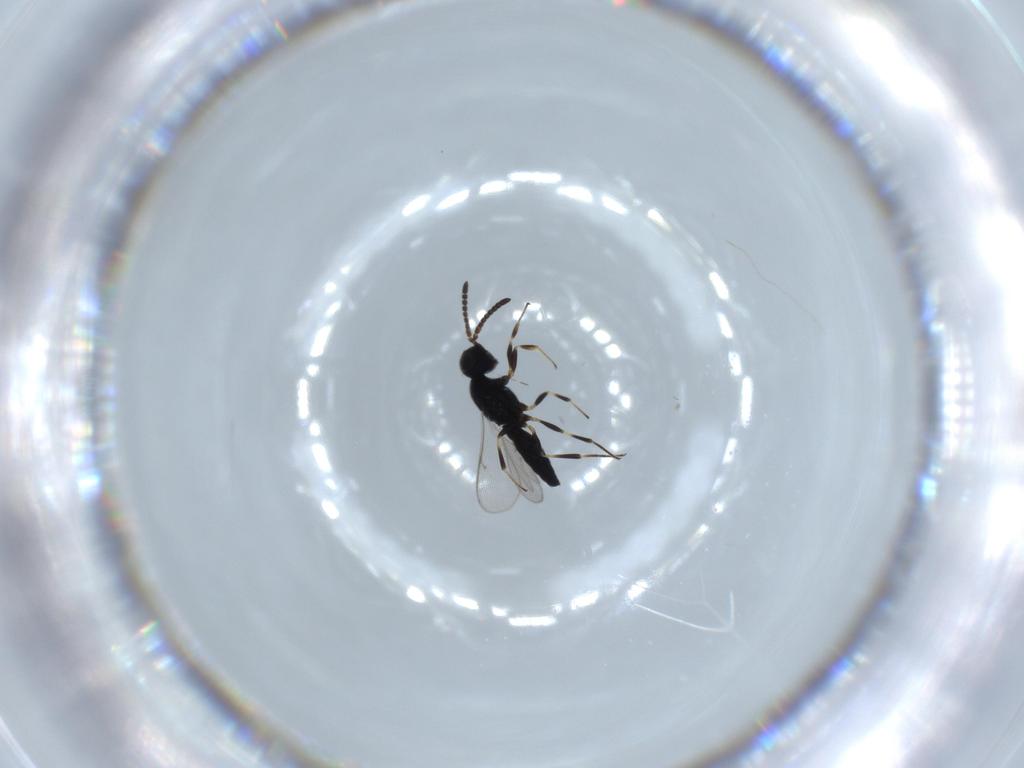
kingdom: Animalia
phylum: Arthropoda
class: Insecta
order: Hymenoptera
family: Scelionidae
